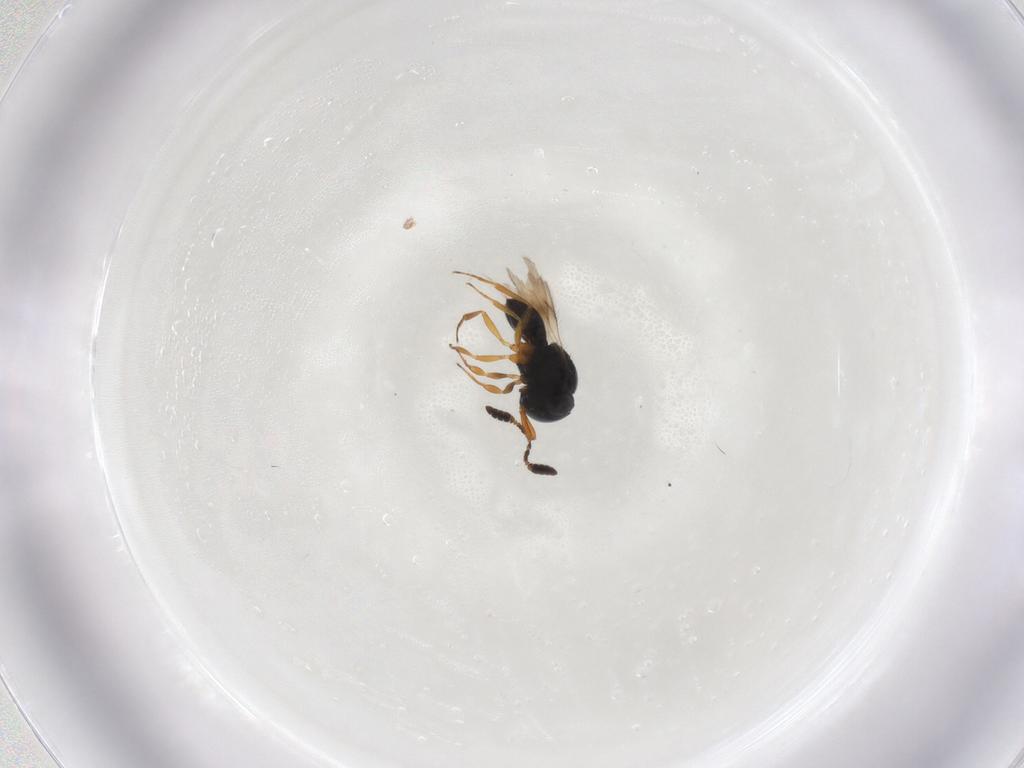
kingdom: Animalia
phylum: Arthropoda
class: Insecta
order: Hymenoptera
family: Scelionidae
